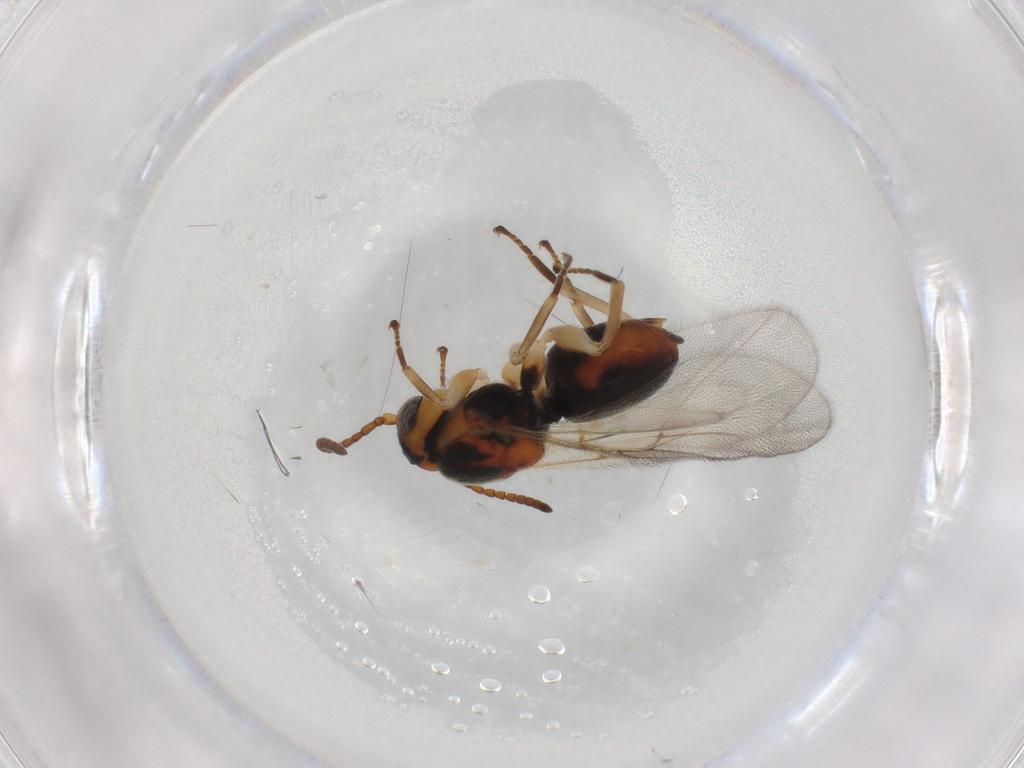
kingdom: Animalia
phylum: Arthropoda
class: Insecta
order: Hymenoptera
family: Cynipidae
